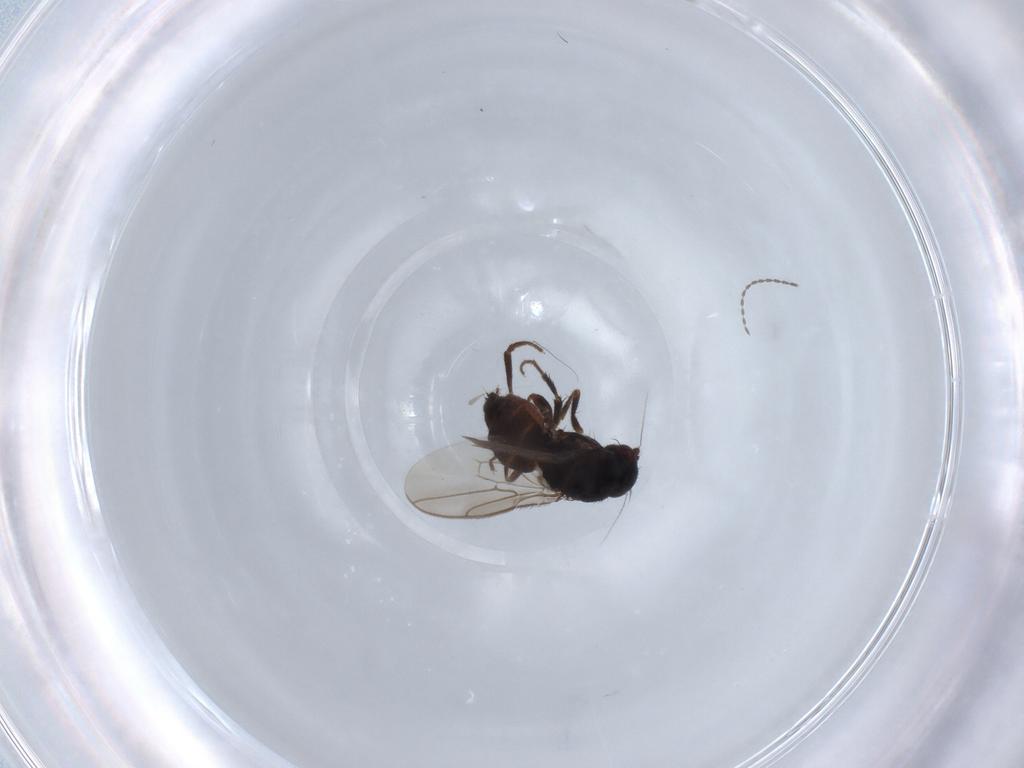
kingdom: Animalia
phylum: Arthropoda
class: Insecta
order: Diptera
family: Sphaeroceridae
